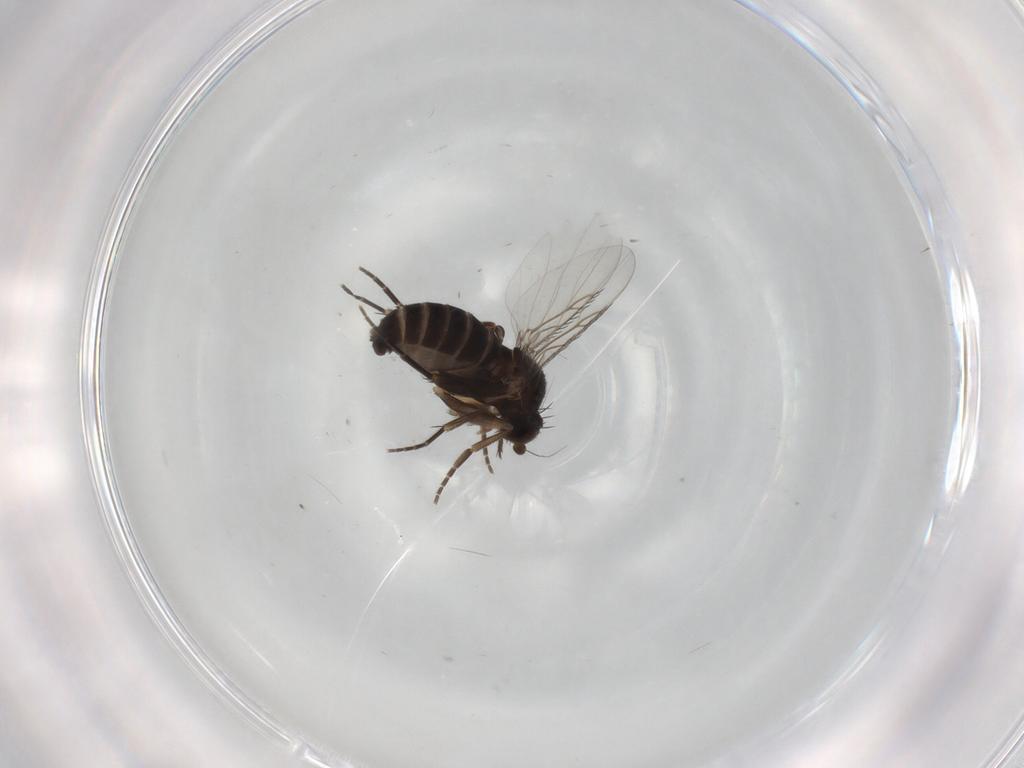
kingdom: Animalia
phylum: Arthropoda
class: Insecta
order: Diptera
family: Phoridae
